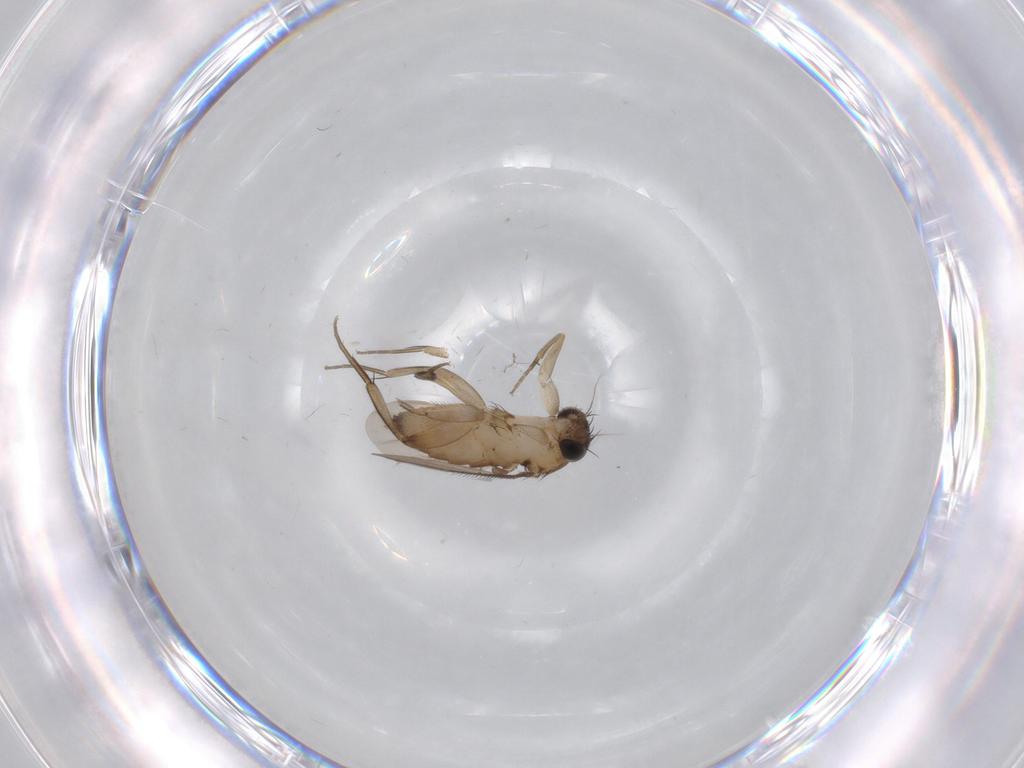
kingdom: Animalia
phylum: Arthropoda
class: Insecta
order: Diptera
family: Phoridae
